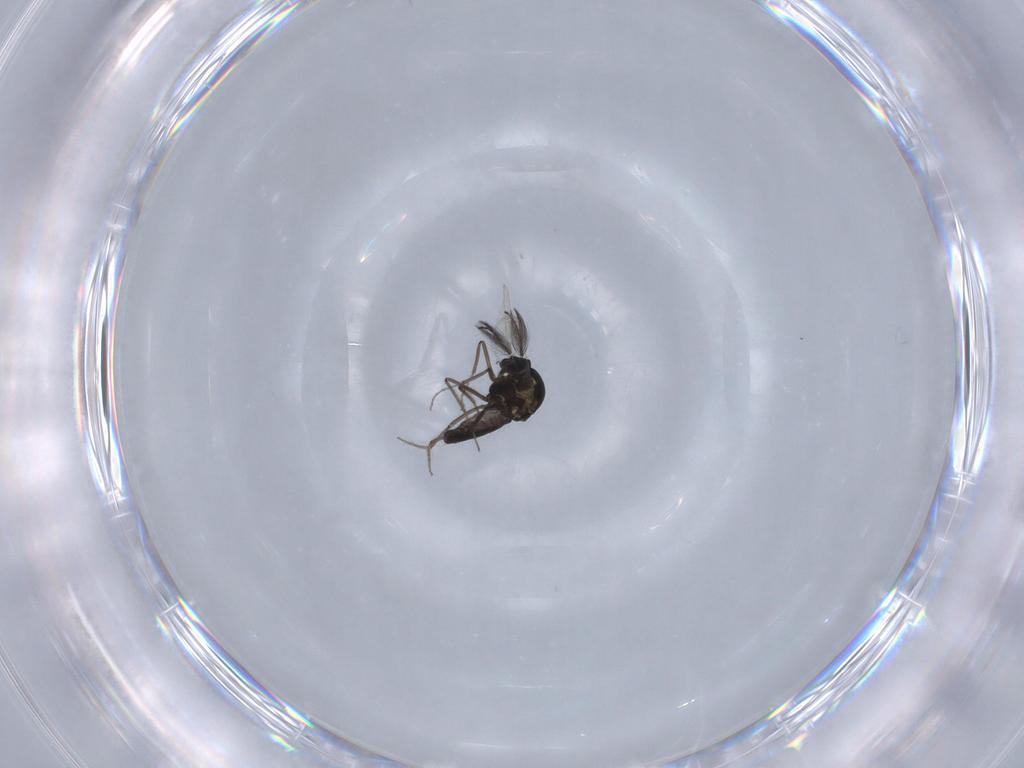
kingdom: Animalia
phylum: Arthropoda
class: Insecta
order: Diptera
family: Ceratopogonidae
